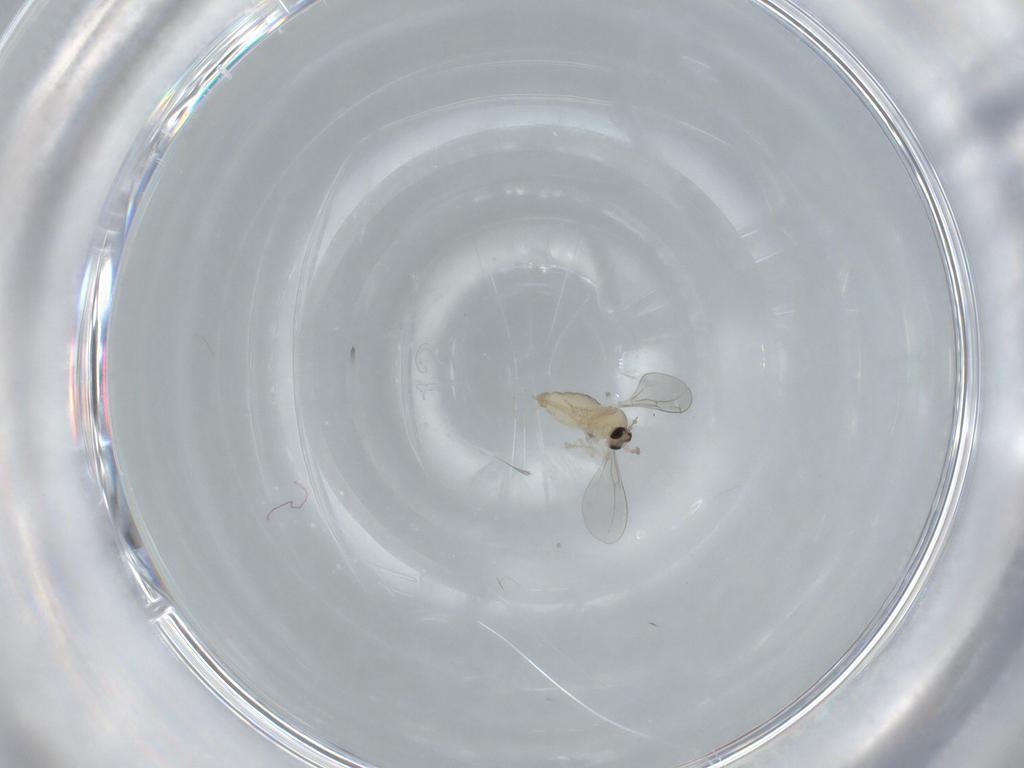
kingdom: Animalia
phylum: Arthropoda
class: Insecta
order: Diptera
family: Cecidomyiidae
